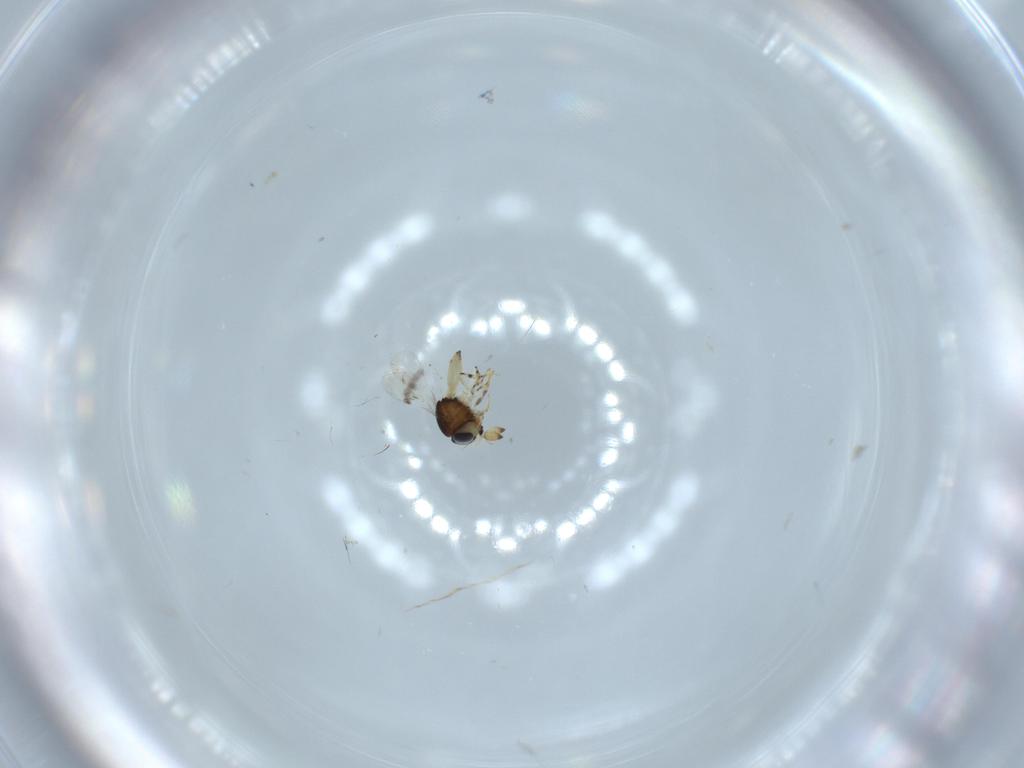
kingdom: Animalia
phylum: Arthropoda
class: Insecta
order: Hymenoptera
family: Scelionidae
